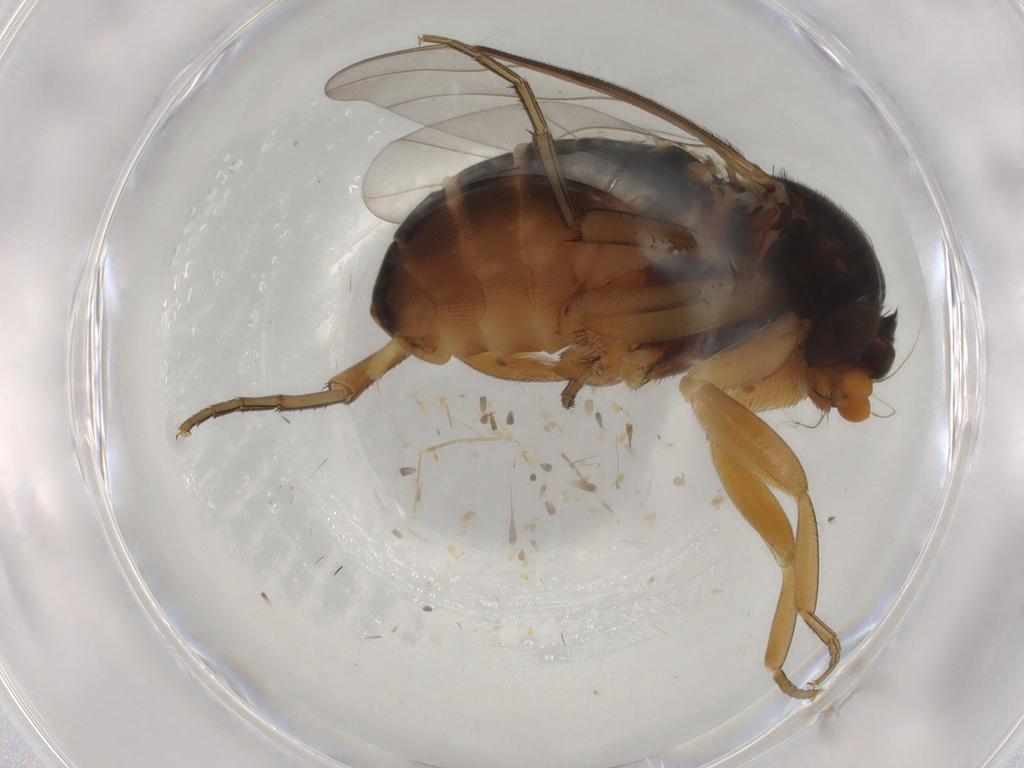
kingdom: Animalia
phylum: Arthropoda
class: Insecta
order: Diptera
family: Phoridae
